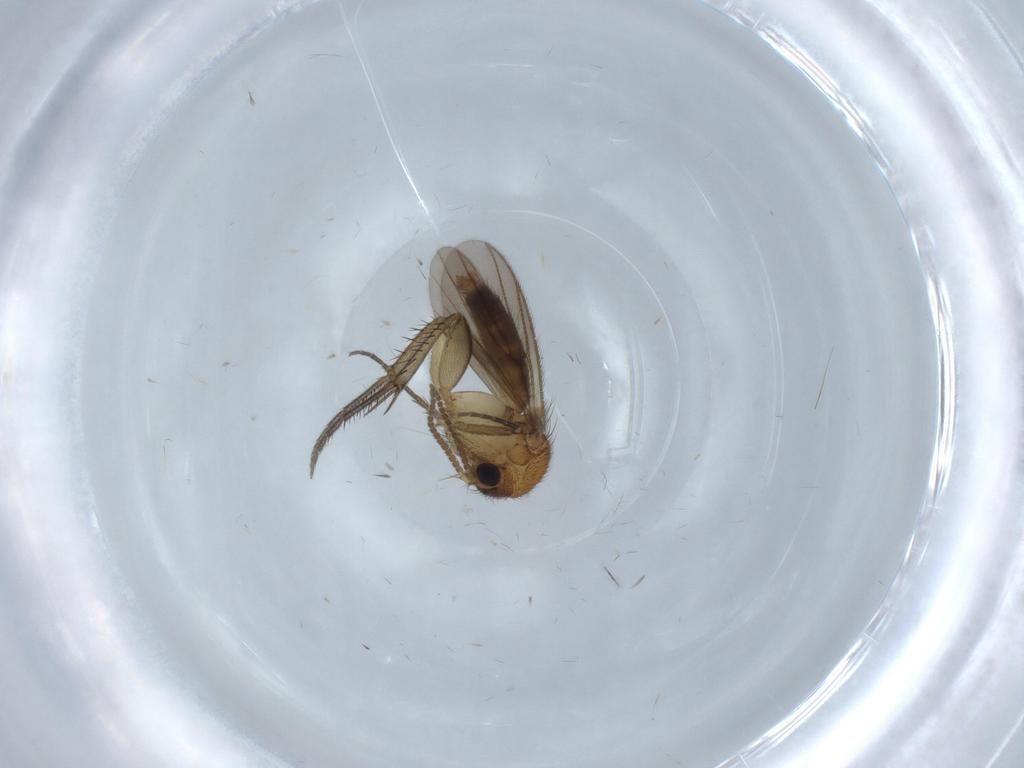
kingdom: Animalia
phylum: Arthropoda
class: Insecta
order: Diptera
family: Mycetophilidae
